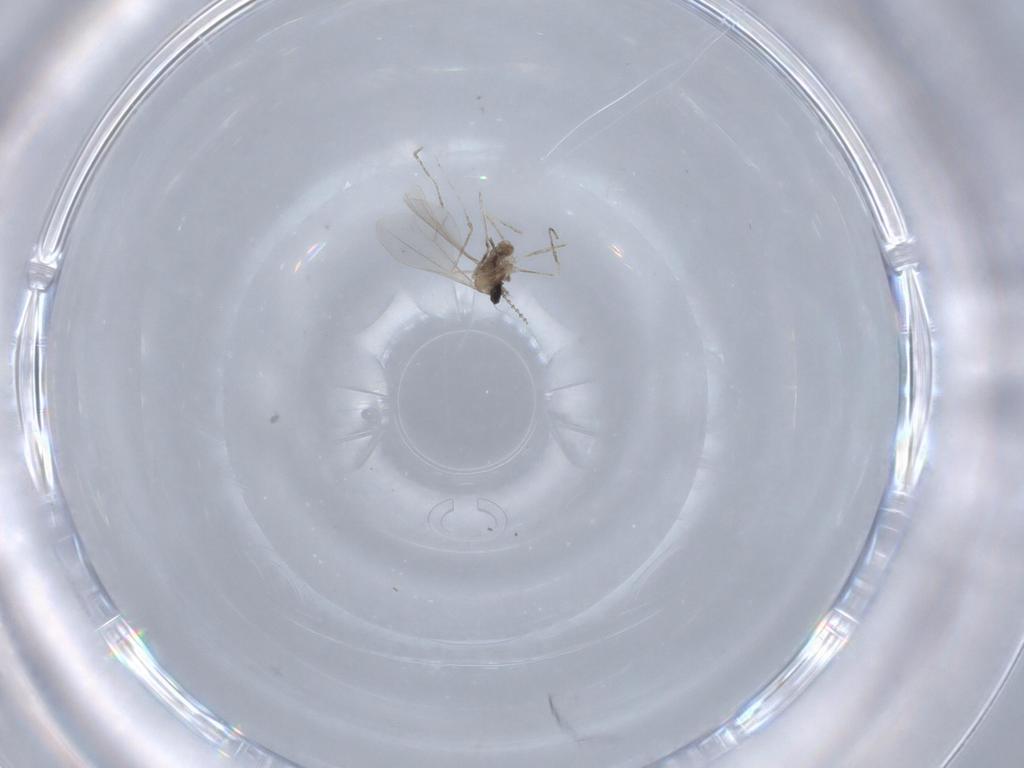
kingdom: Animalia
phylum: Arthropoda
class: Insecta
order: Diptera
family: Cecidomyiidae
